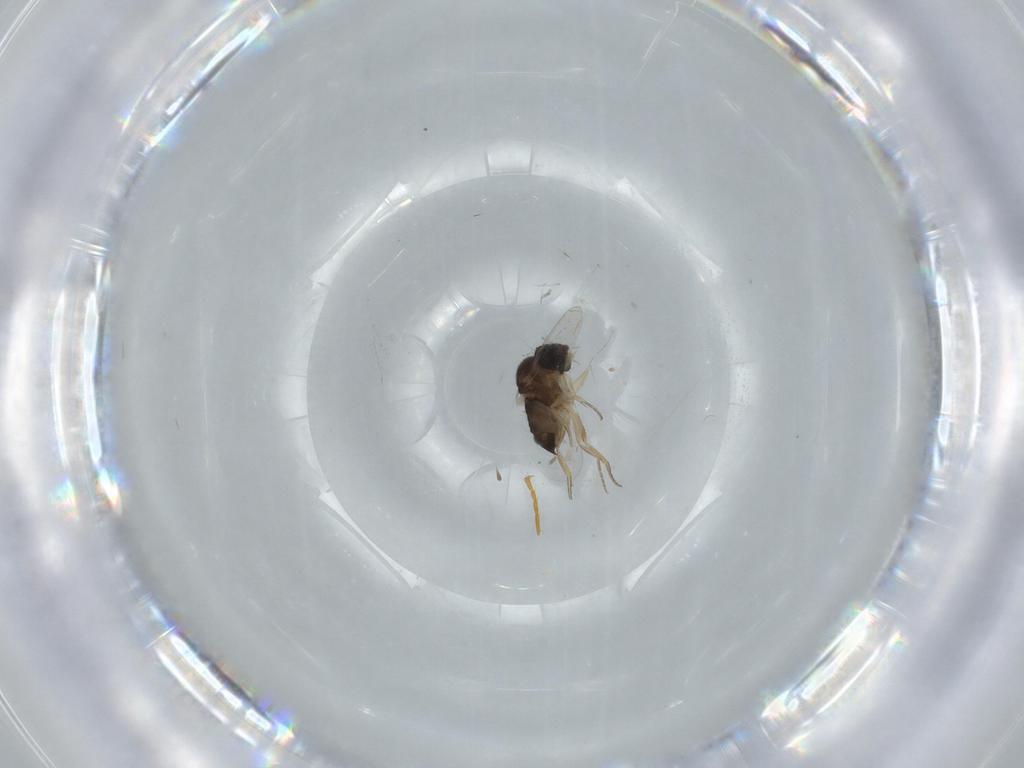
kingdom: Animalia
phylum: Arthropoda
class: Insecta
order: Diptera
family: Phoridae
